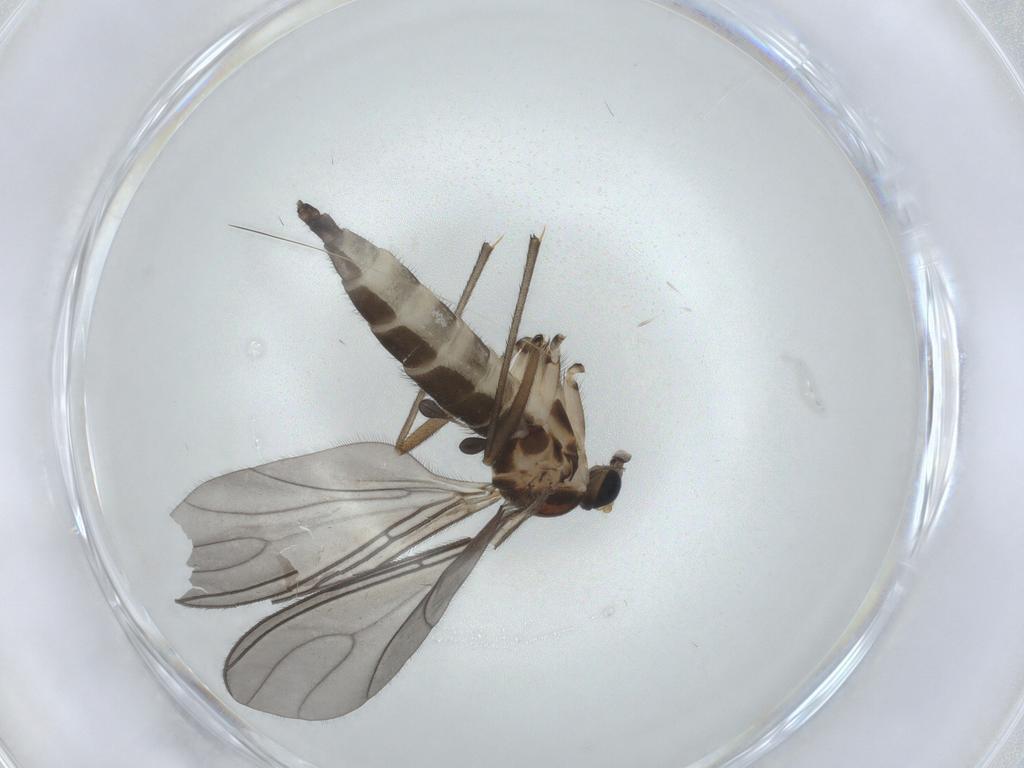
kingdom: Animalia
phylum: Arthropoda
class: Insecta
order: Diptera
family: Sciaridae
